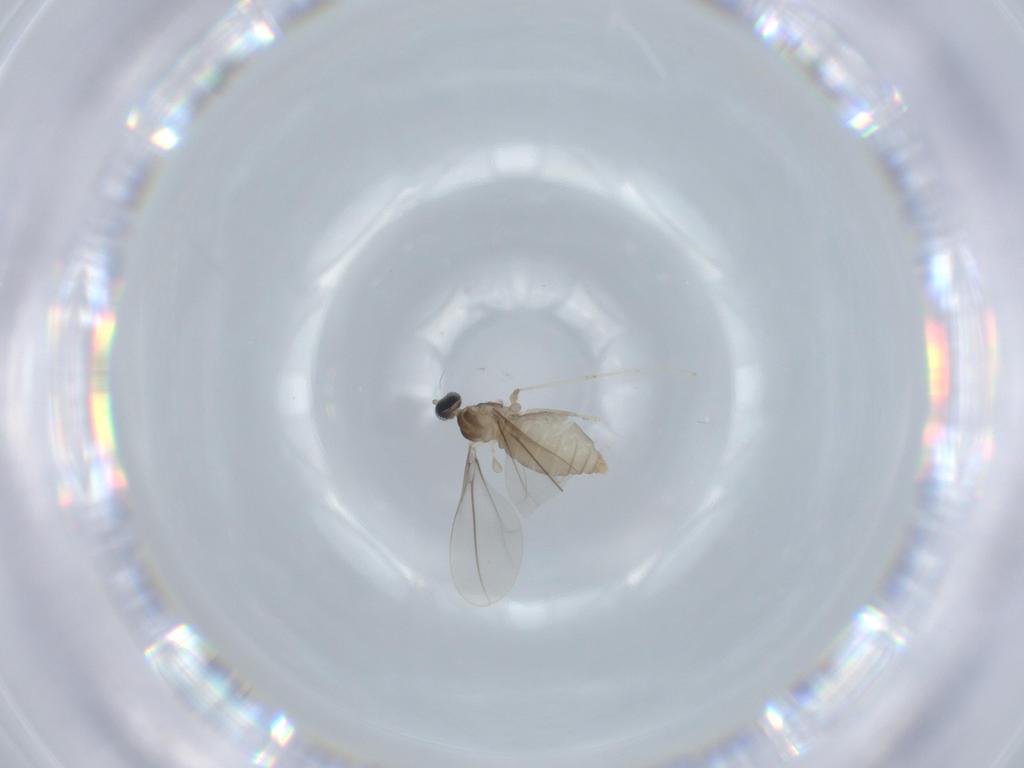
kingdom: Animalia
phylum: Arthropoda
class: Insecta
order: Diptera
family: Cecidomyiidae
